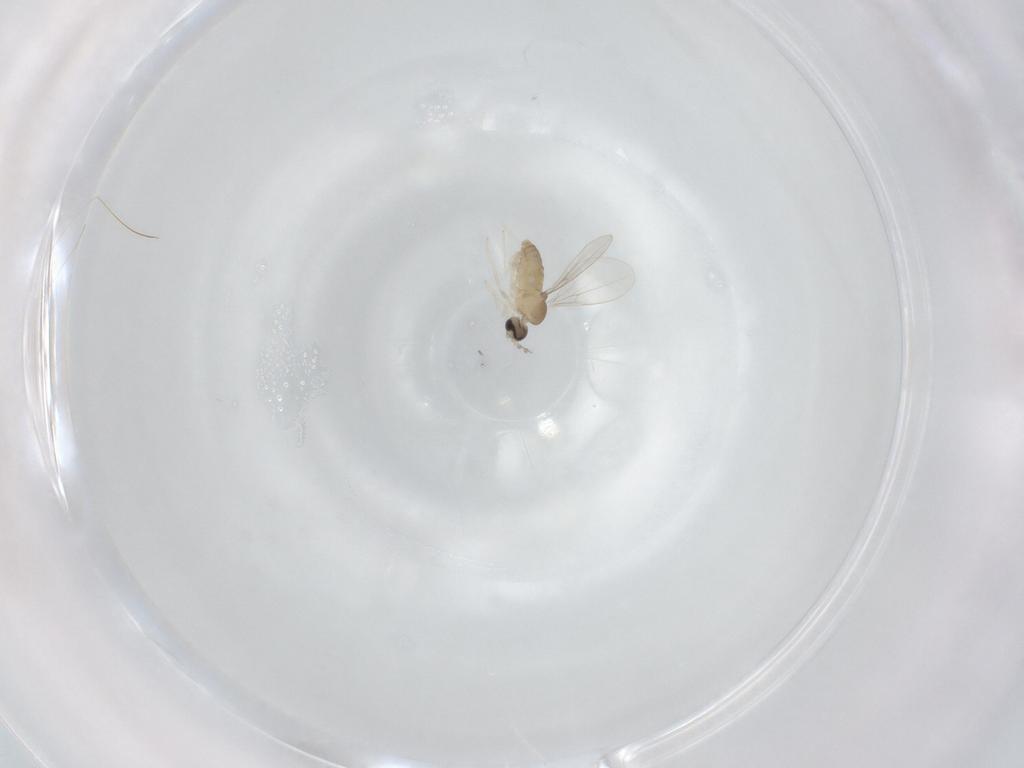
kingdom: Animalia
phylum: Arthropoda
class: Insecta
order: Diptera
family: Cecidomyiidae
